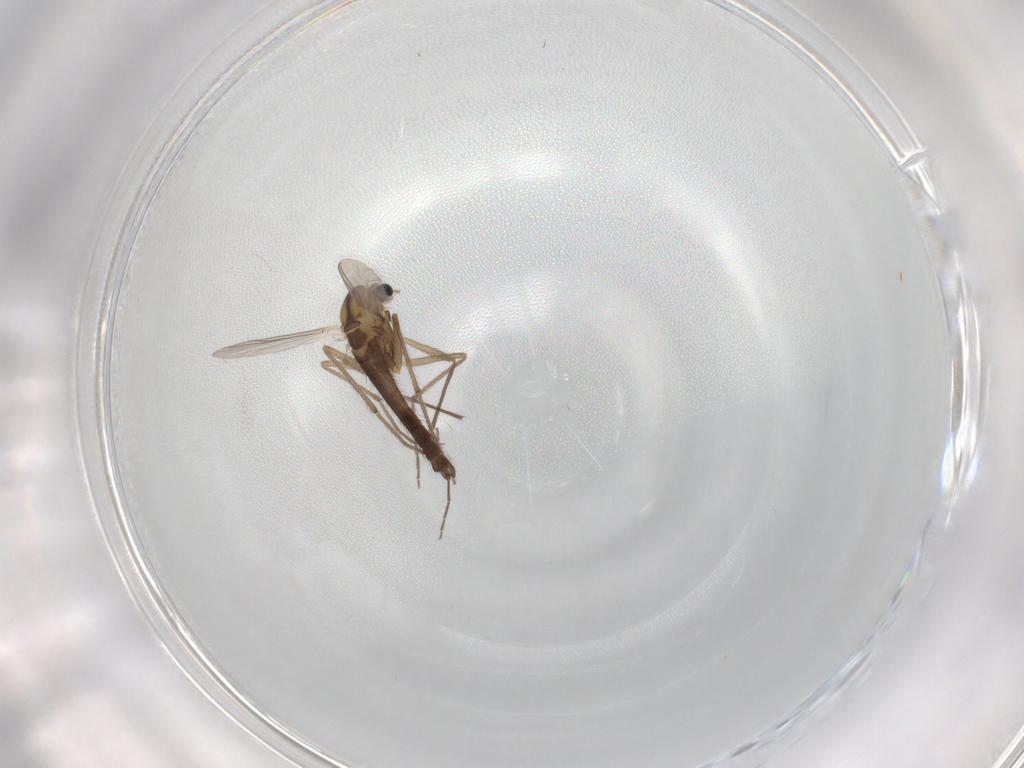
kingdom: Animalia
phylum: Arthropoda
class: Insecta
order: Diptera
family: Chironomidae
